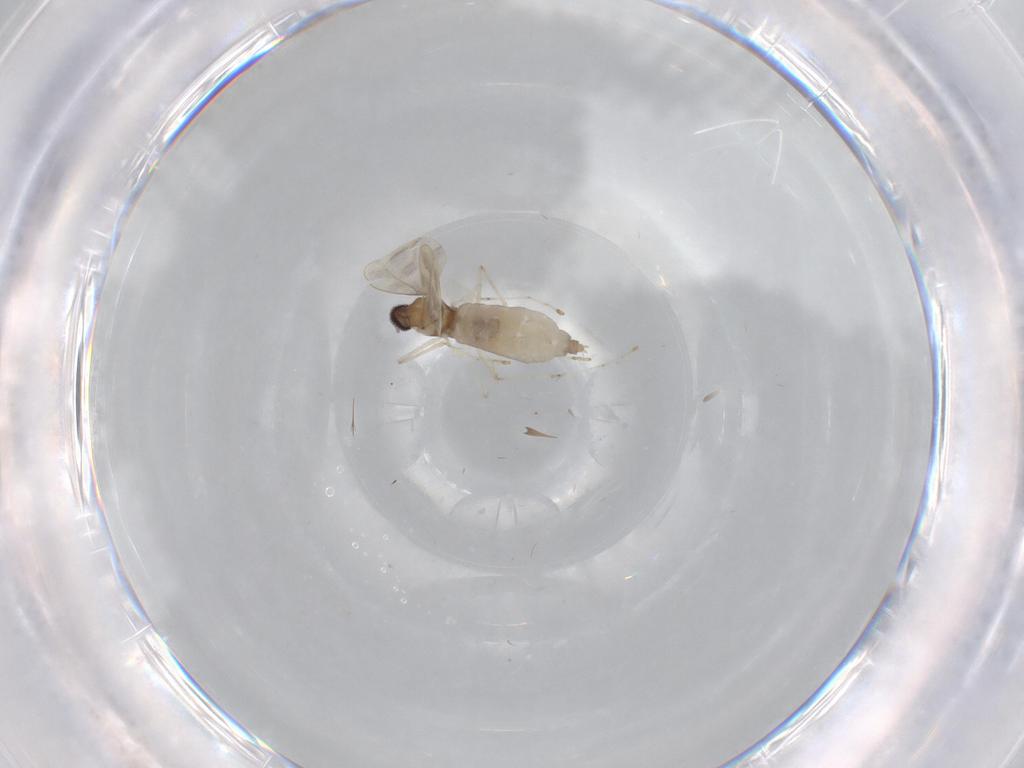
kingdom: Animalia
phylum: Arthropoda
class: Insecta
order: Diptera
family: Cecidomyiidae
